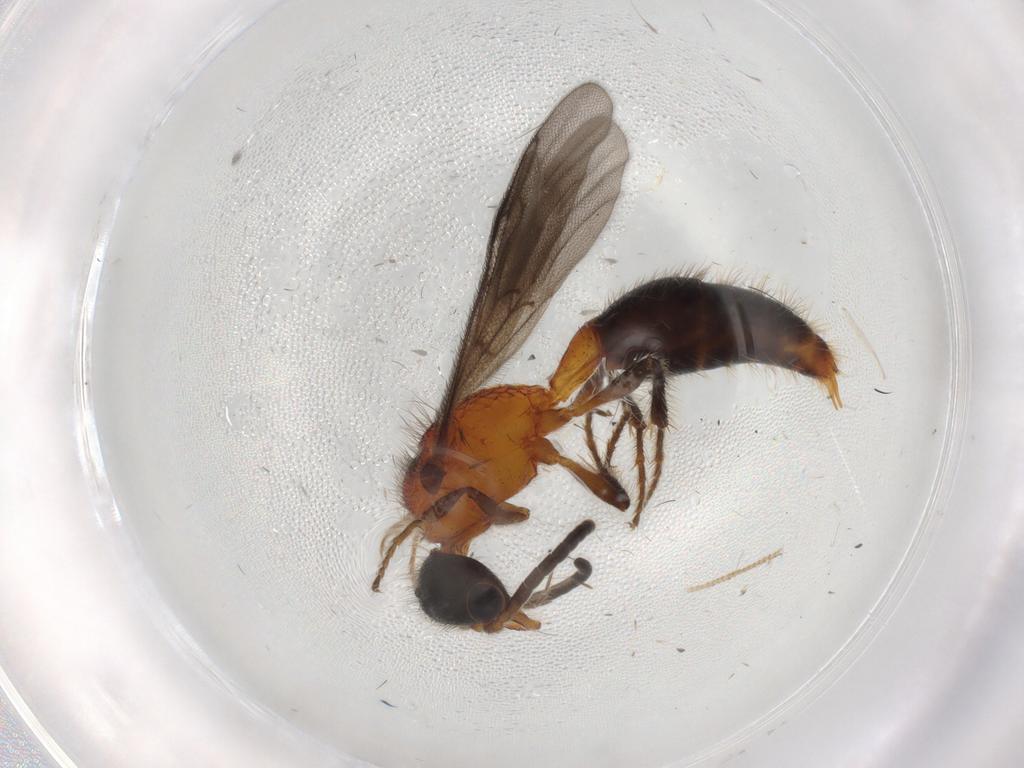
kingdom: Animalia
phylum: Arthropoda
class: Insecta
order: Hymenoptera
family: Mutillidae
